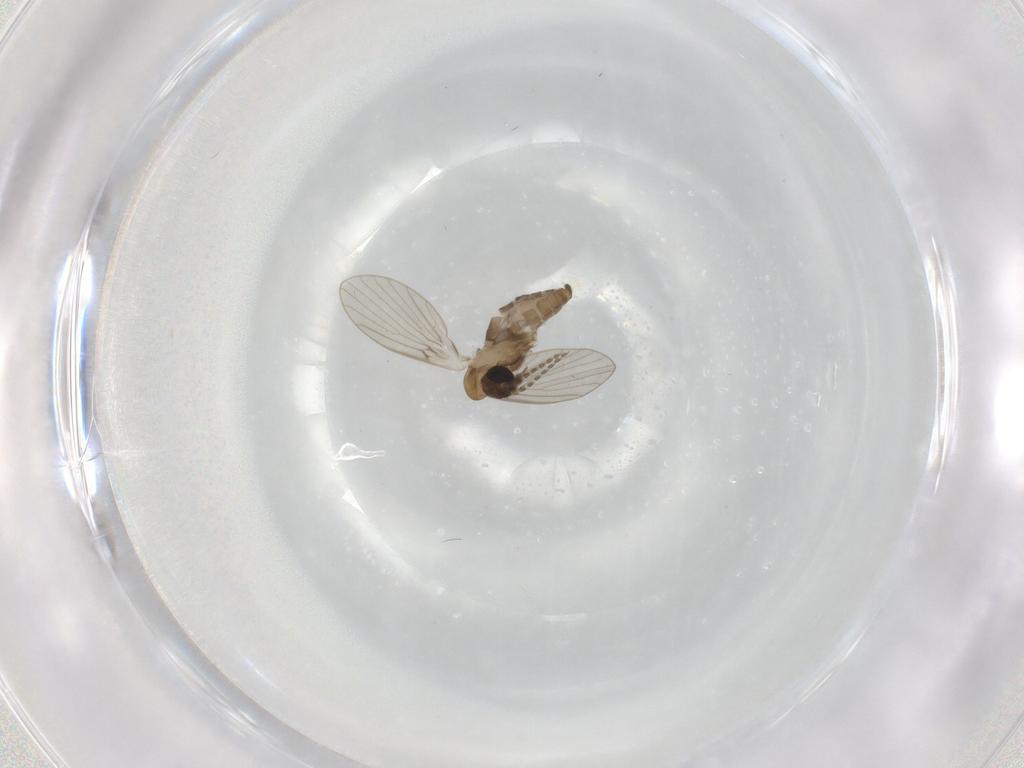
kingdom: Animalia
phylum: Arthropoda
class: Insecta
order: Diptera
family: Psychodidae
